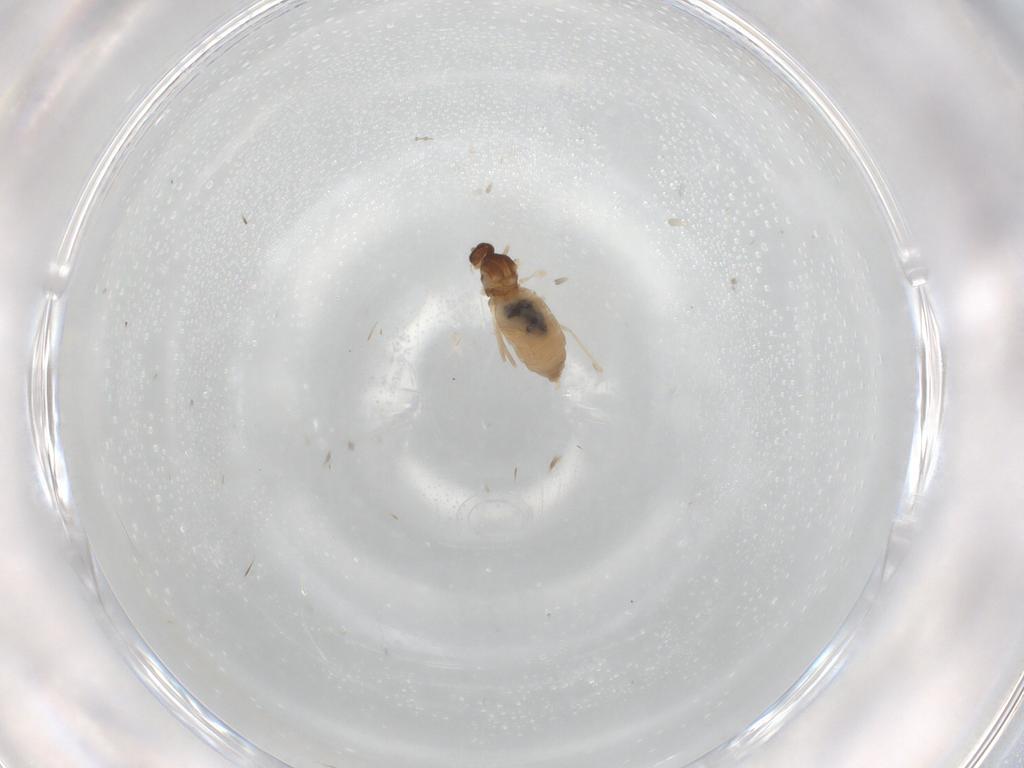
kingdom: Animalia
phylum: Arthropoda
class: Insecta
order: Diptera
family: Cecidomyiidae
